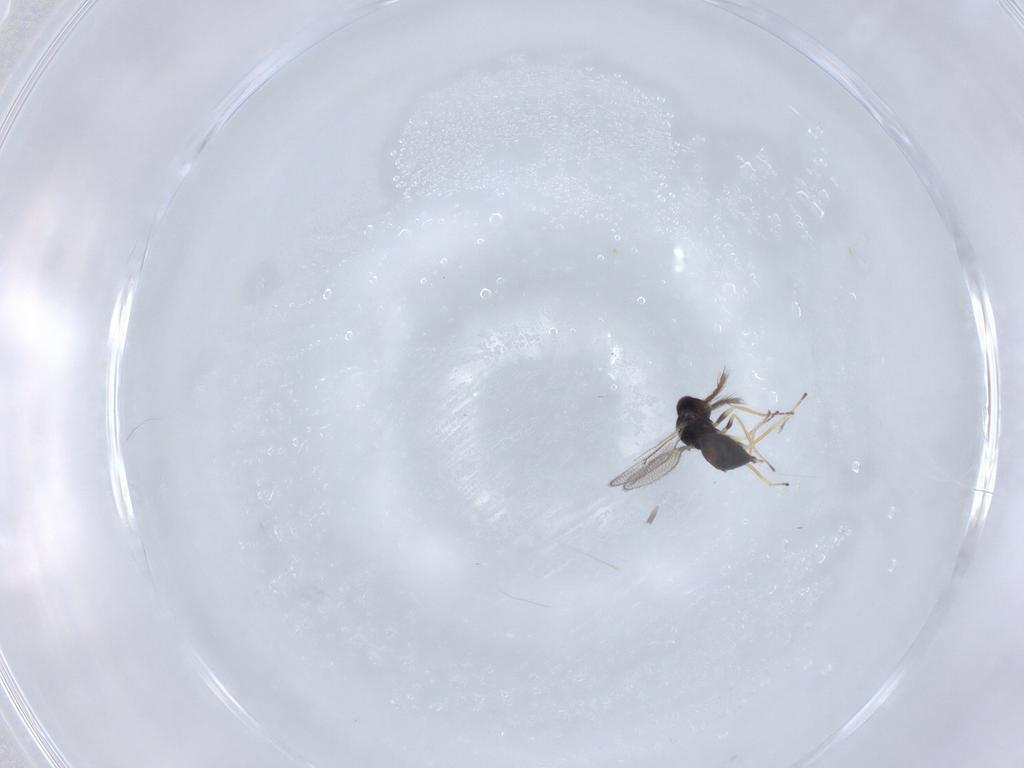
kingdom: Animalia
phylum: Arthropoda
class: Insecta
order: Hymenoptera
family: Eulophidae
